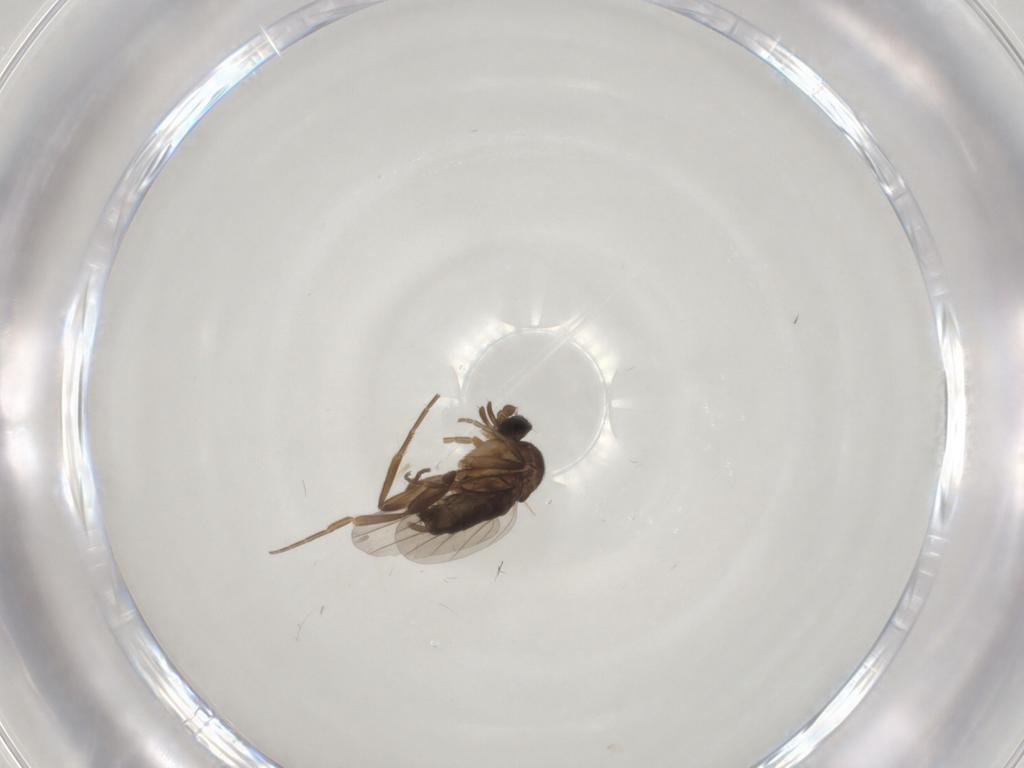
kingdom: Animalia
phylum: Arthropoda
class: Insecta
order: Diptera
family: Phoridae
